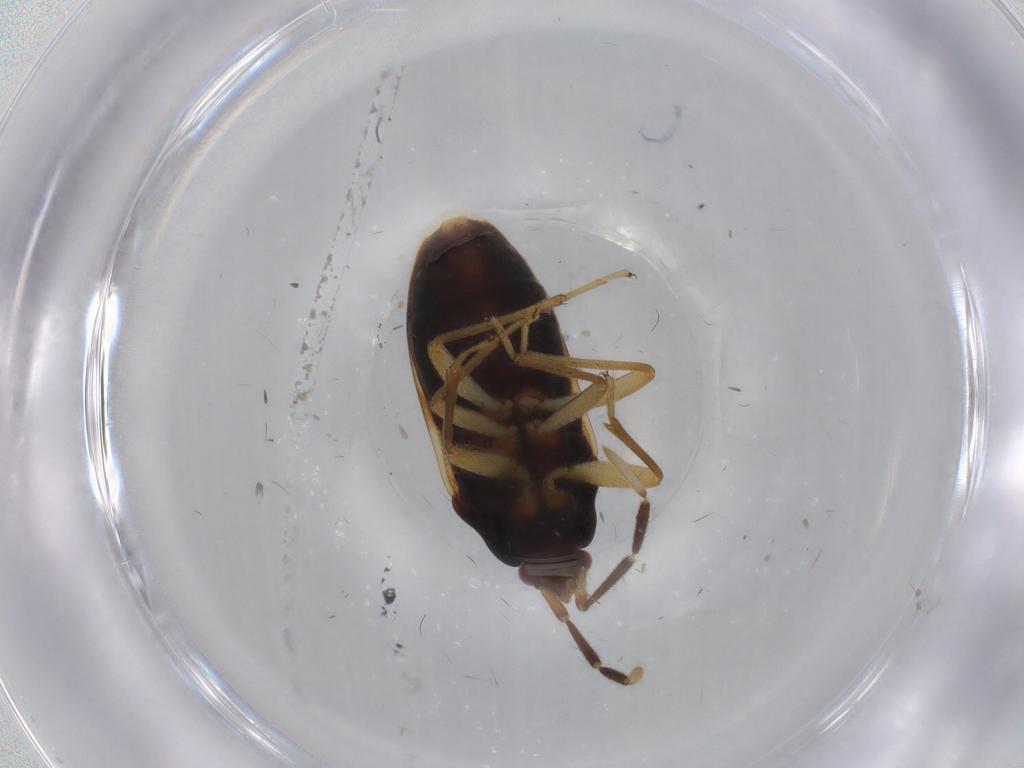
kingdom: Animalia
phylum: Arthropoda
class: Insecta
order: Hemiptera
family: Rhyparochromidae
